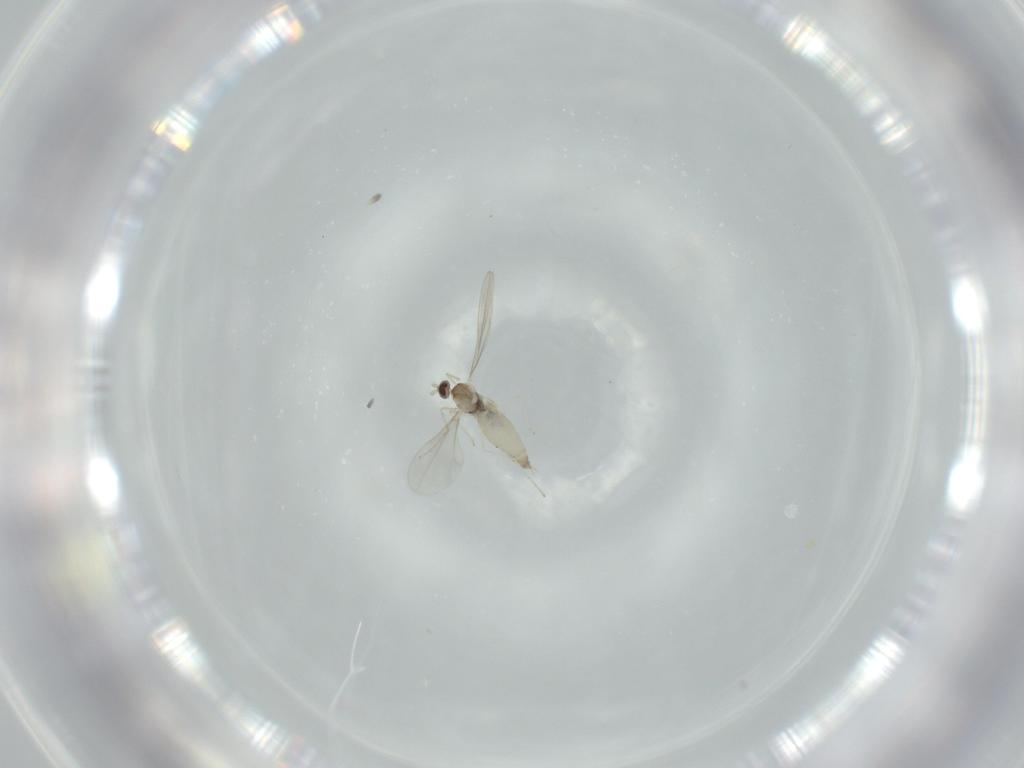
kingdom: Animalia
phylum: Arthropoda
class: Insecta
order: Diptera
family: Cecidomyiidae
